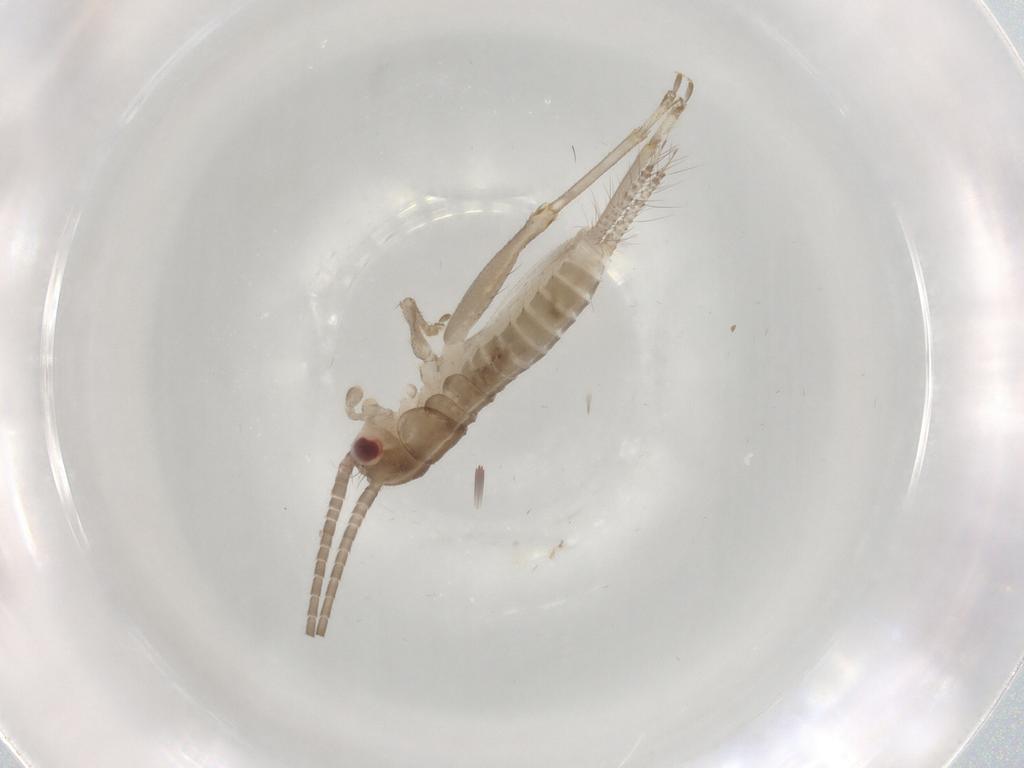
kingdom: Animalia
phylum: Arthropoda
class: Insecta
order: Orthoptera
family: Gryllidae
